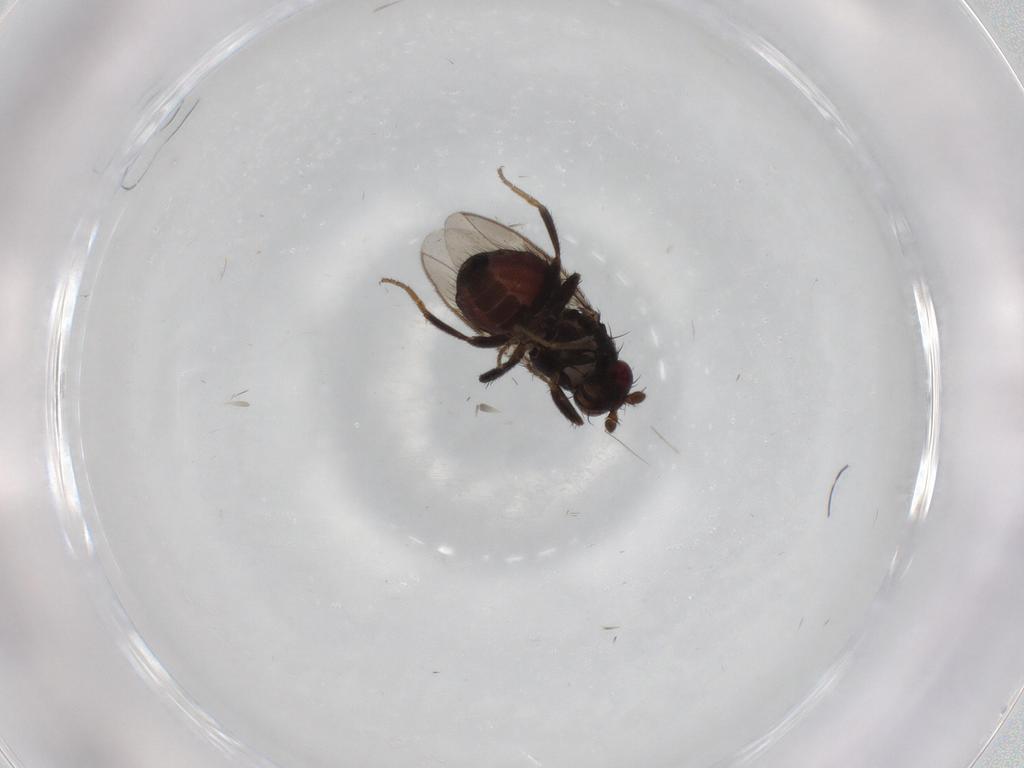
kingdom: Animalia
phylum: Arthropoda
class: Insecta
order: Diptera
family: Sphaeroceridae
